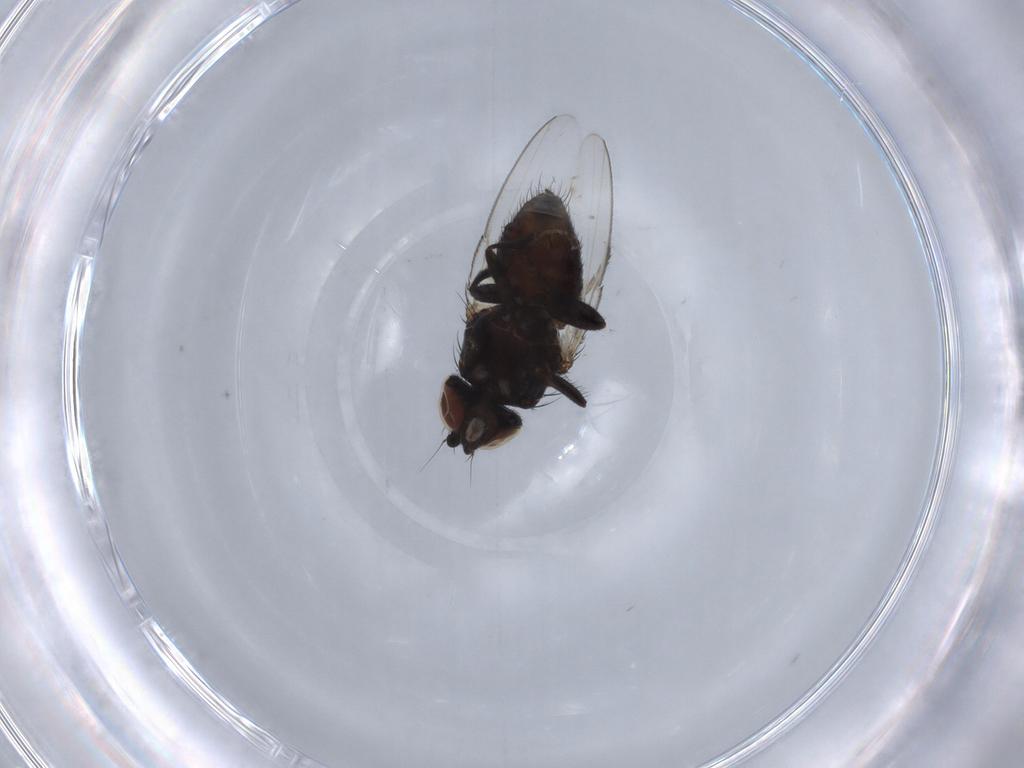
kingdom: Animalia
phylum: Arthropoda
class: Insecta
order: Diptera
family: Milichiidae
